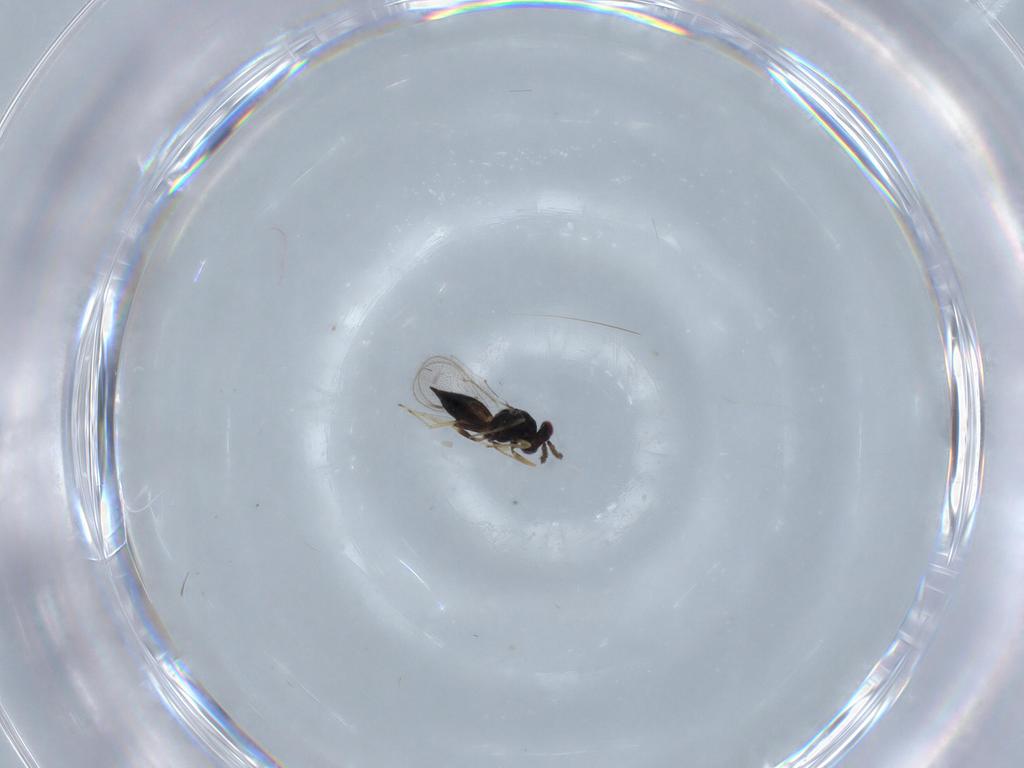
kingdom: Animalia
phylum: Arthropoda
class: Insecta
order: Hymenoptera
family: Eulophidae
